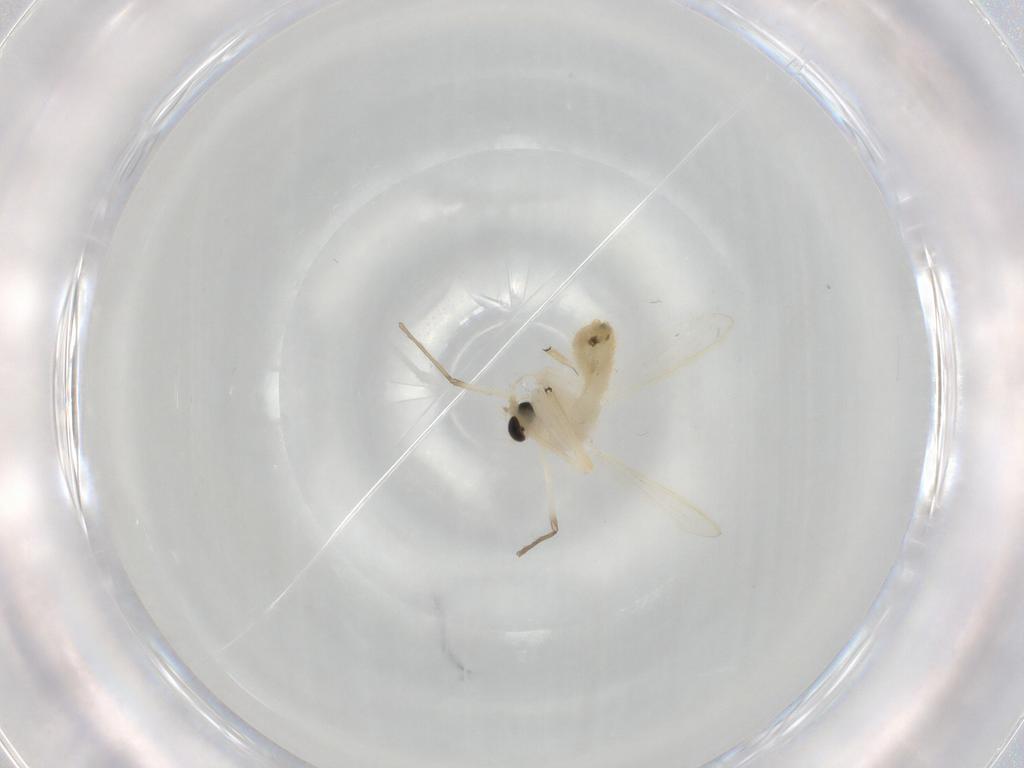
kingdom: Animalia
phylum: Arthropoda
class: Insecta
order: Diptera
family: Chironomidae
